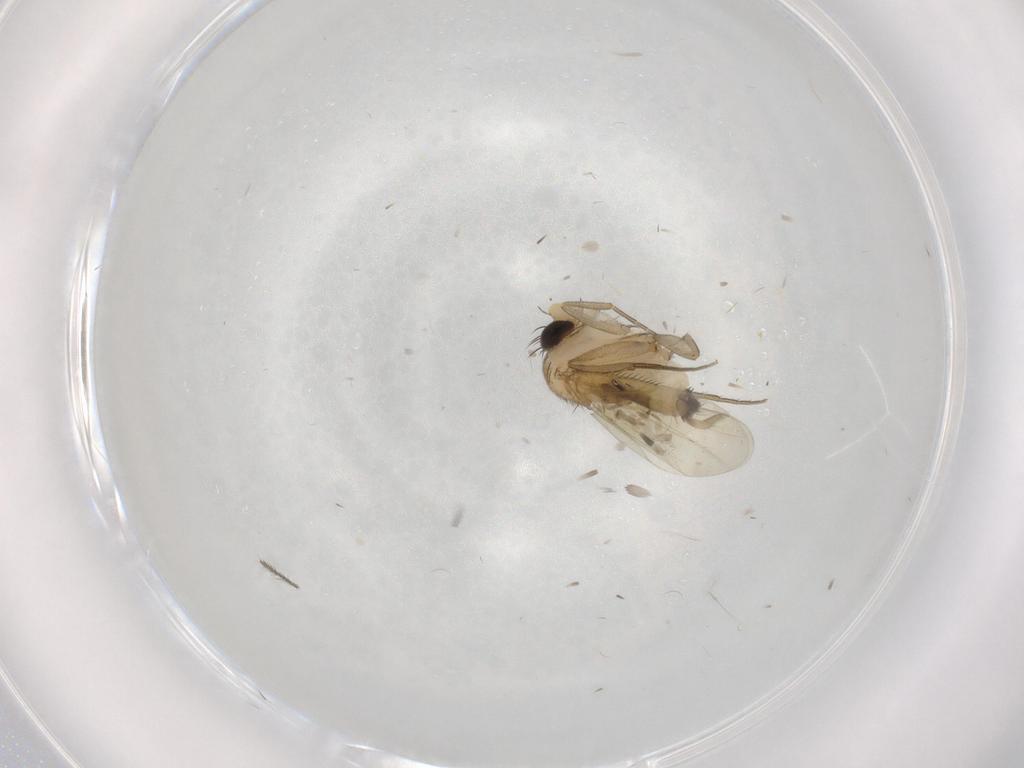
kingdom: Animalia
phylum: Arthropoda
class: Insecta
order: Diptera
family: Phoridae
